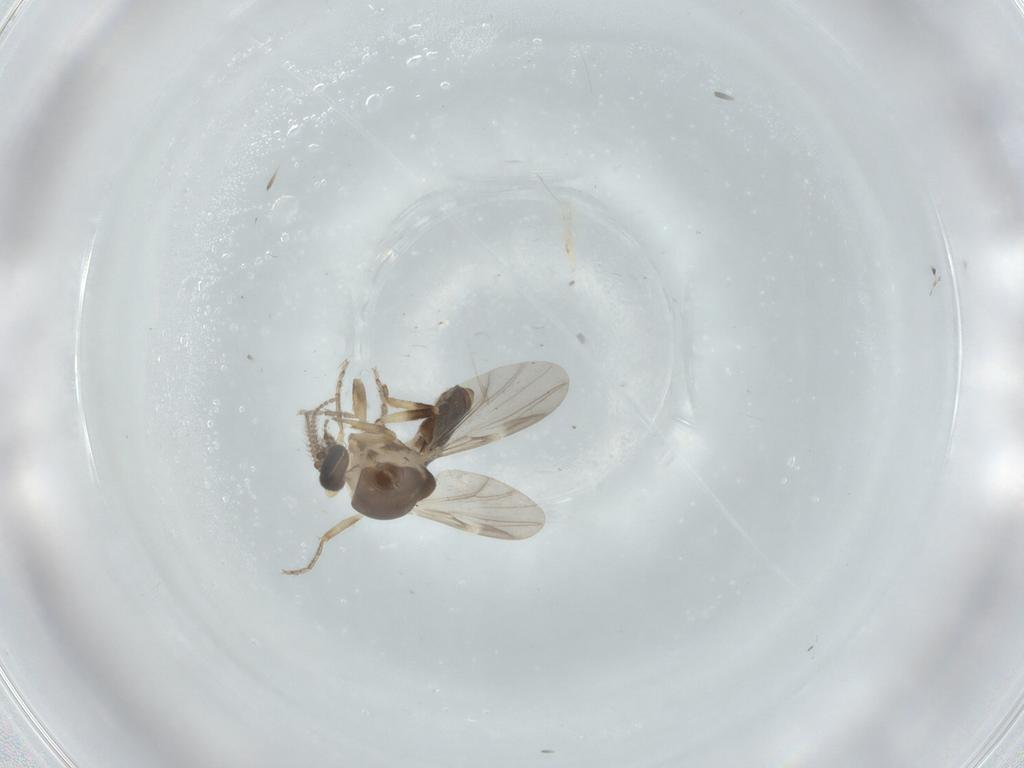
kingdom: Animalia
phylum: Arthropoda
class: Insecta
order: Diptera
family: Ceratopogonidae
